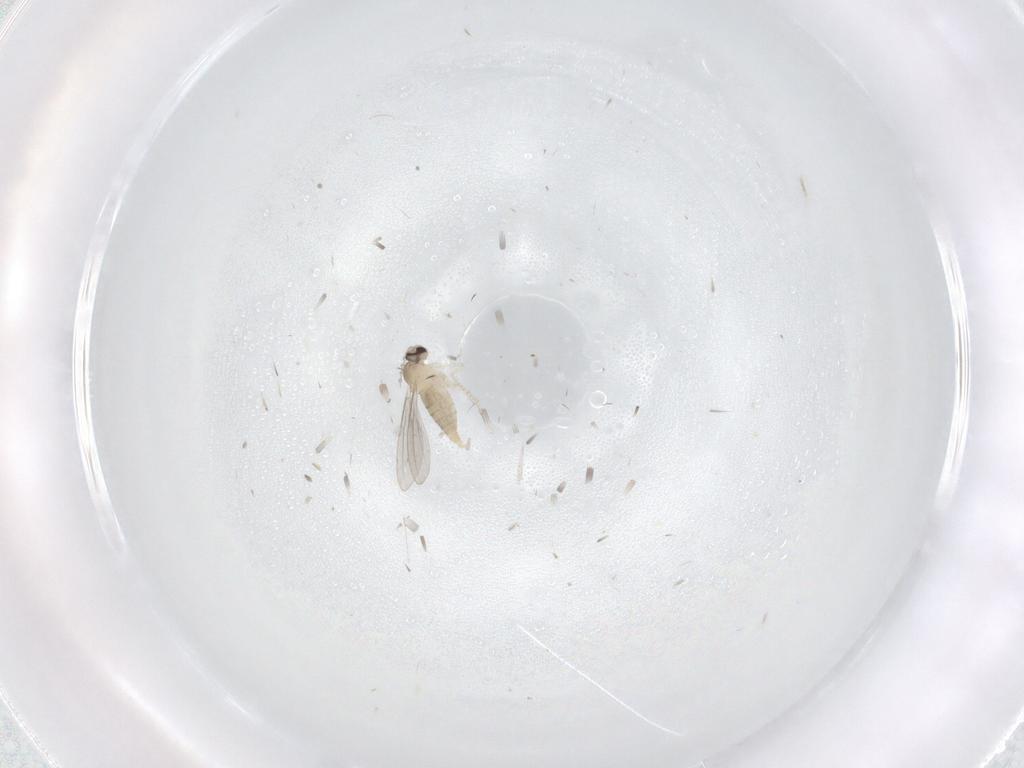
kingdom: Animalia
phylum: Arthropoda
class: Insecta
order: Diptera
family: Cecidomyiidae
